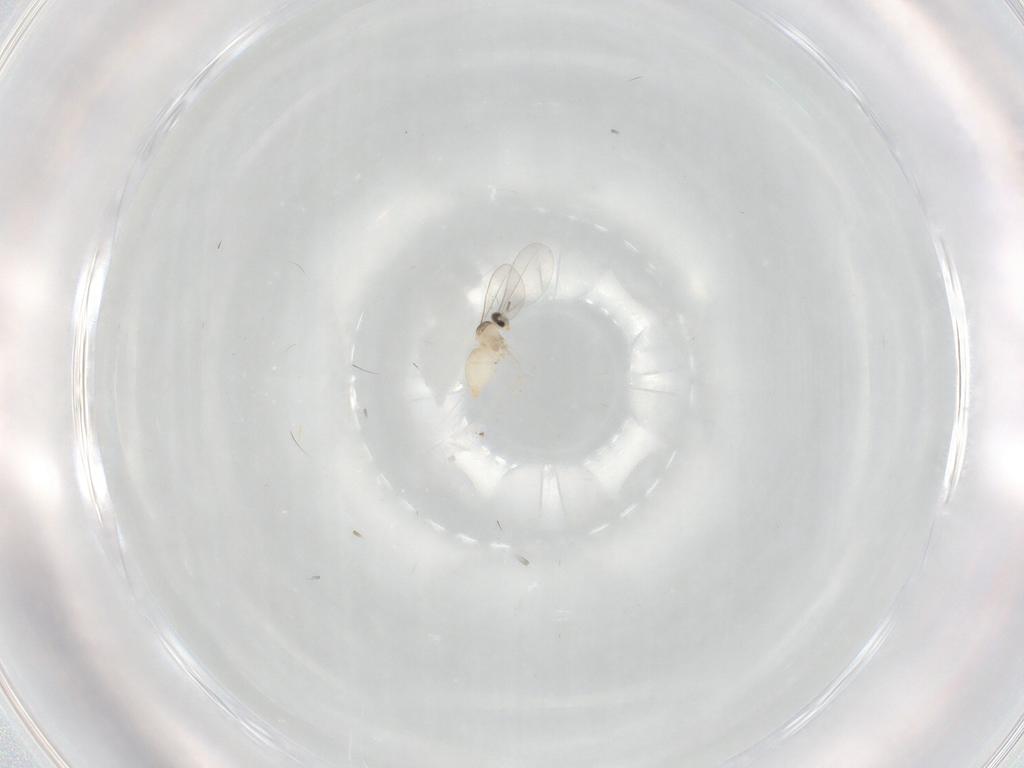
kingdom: Animalia
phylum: Arthropoda
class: Insecta
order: Diptera
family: Cecidomyiidae
